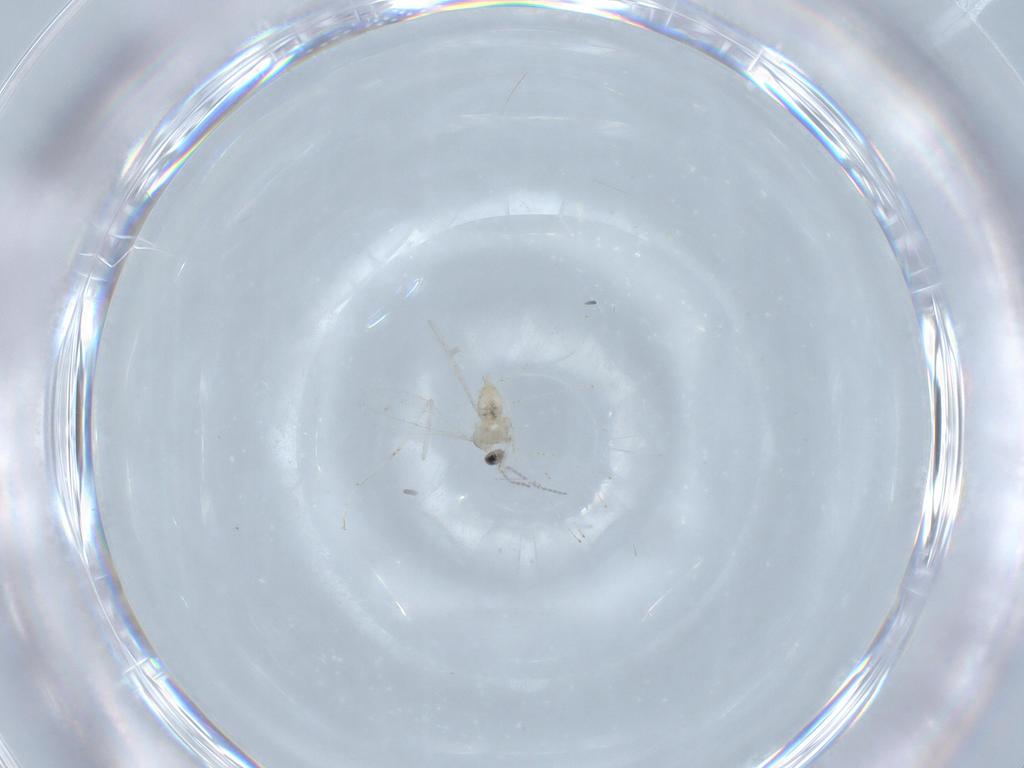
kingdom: Animalia
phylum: Arthropoda
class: Insecta
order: Diptera
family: Cecidomyiidae
